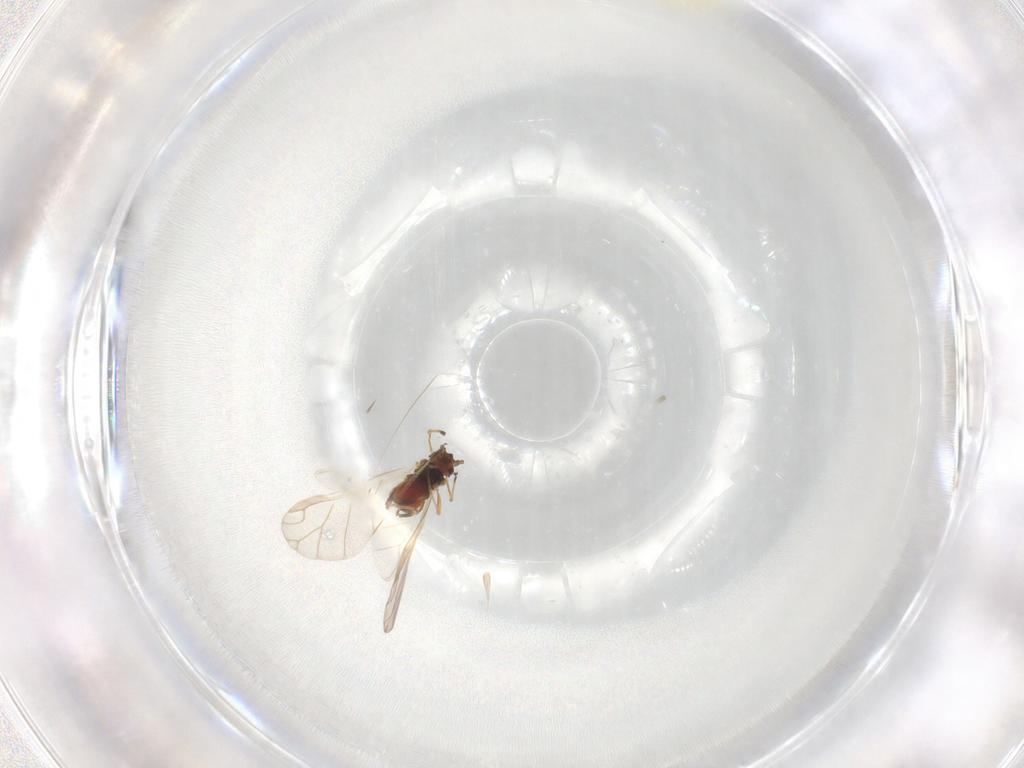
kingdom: Animalia
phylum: Arthropoda
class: Insecta
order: Hemiptera
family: Aleyrodidae
